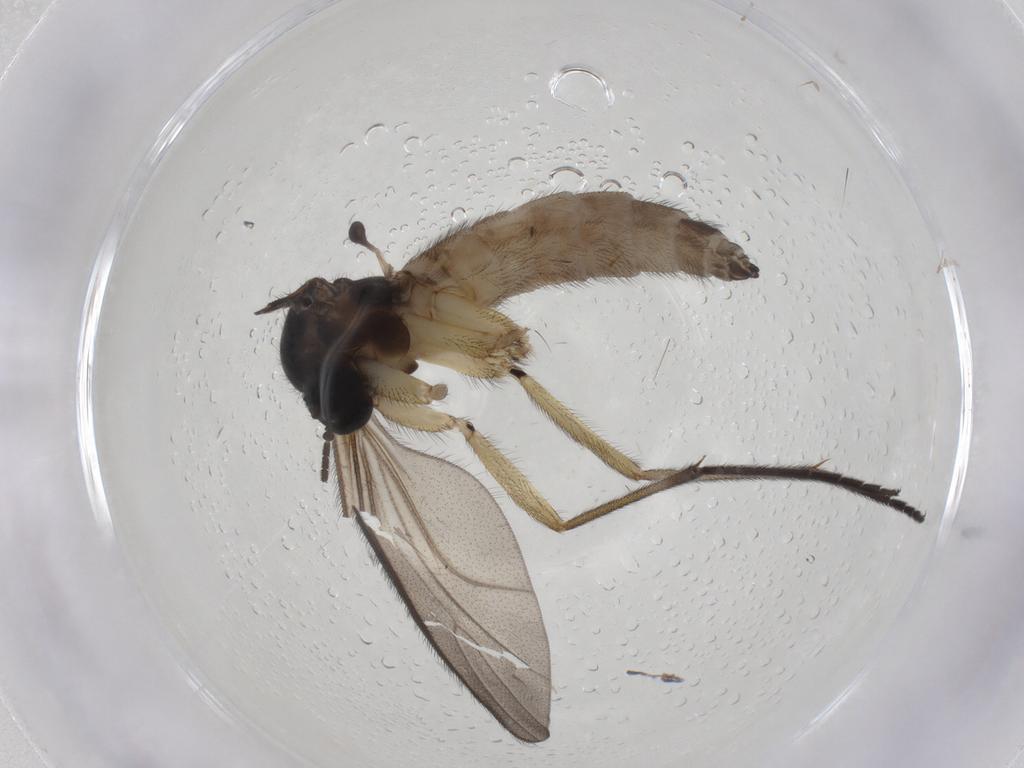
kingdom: Animalia
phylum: Arthropoda
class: Insecta
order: Diptera
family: Sciaridae
